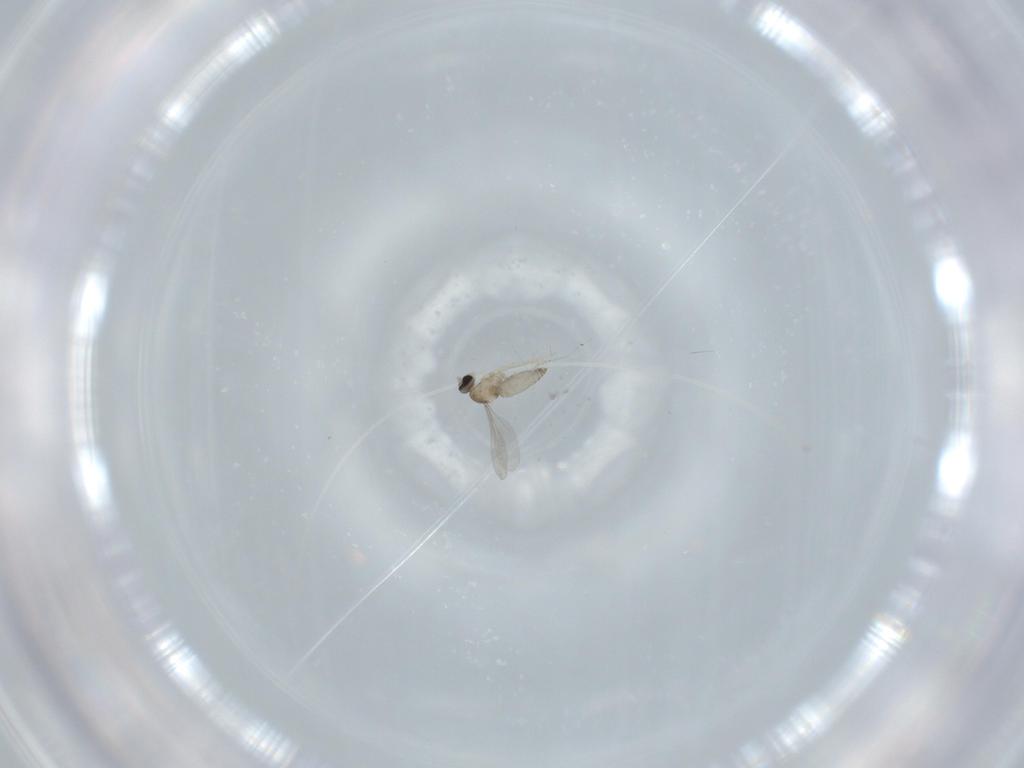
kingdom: Animalia
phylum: Arthropoda
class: Insecta
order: Diptera
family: Cecidomyiidae
